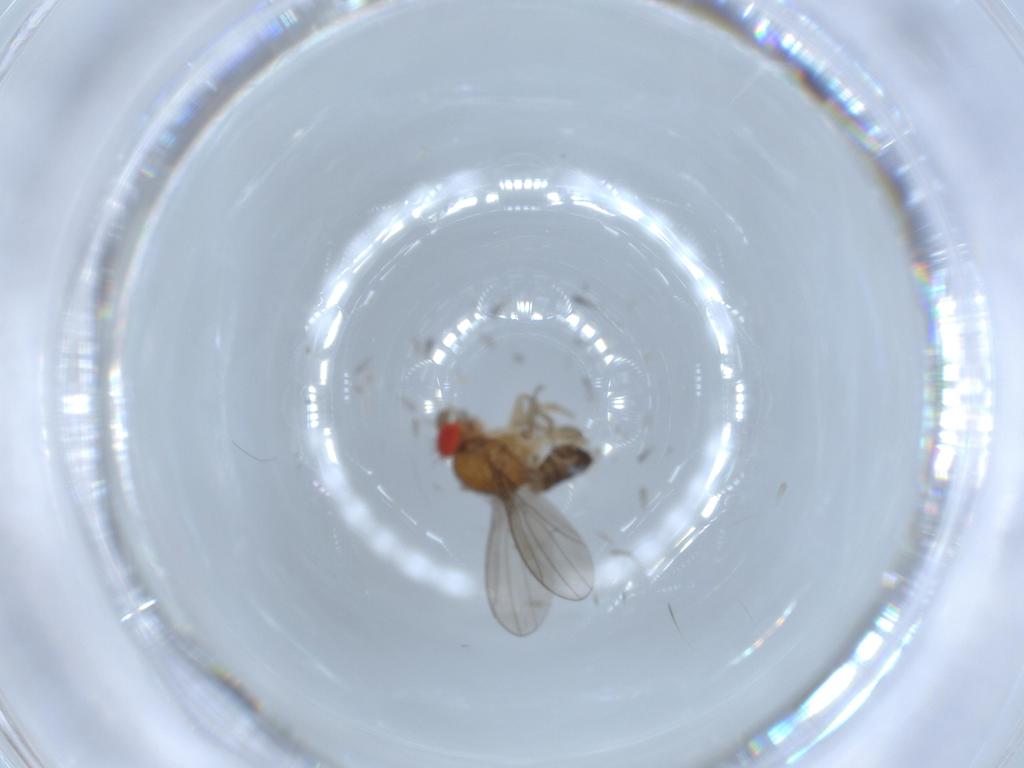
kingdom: Animalia
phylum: Arthropoda
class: Insecta
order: Diptera
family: Drosophilidae
